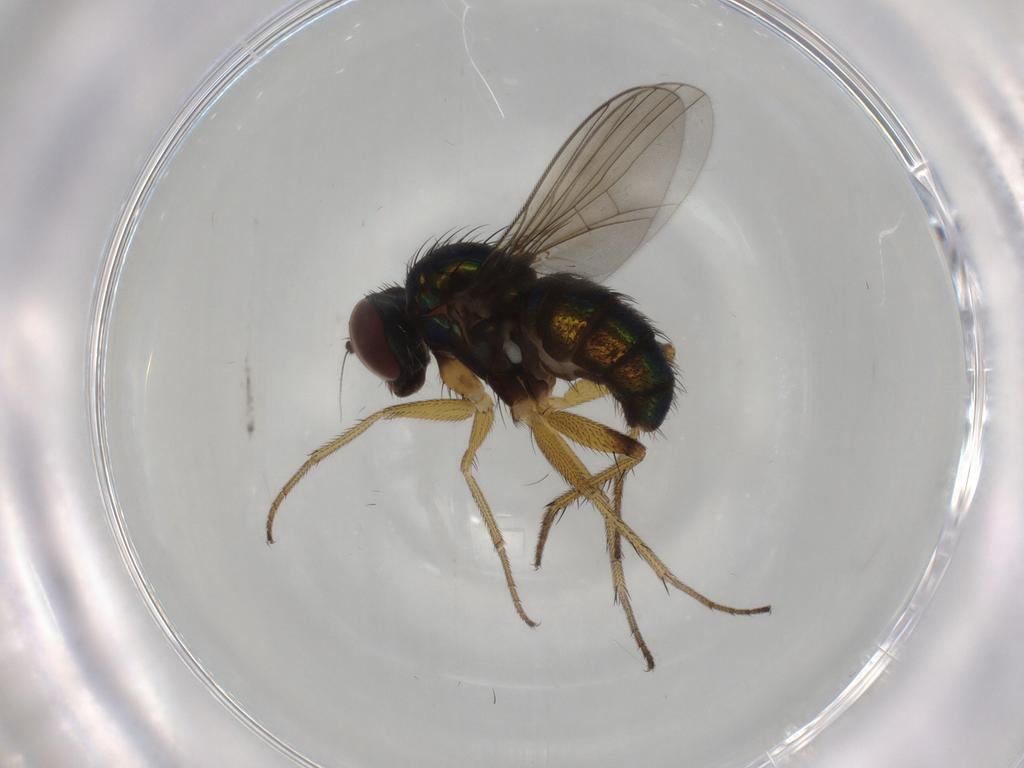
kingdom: Animalia
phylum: Arthropoda
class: Insecta
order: Diptera
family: Dolichopodidae
